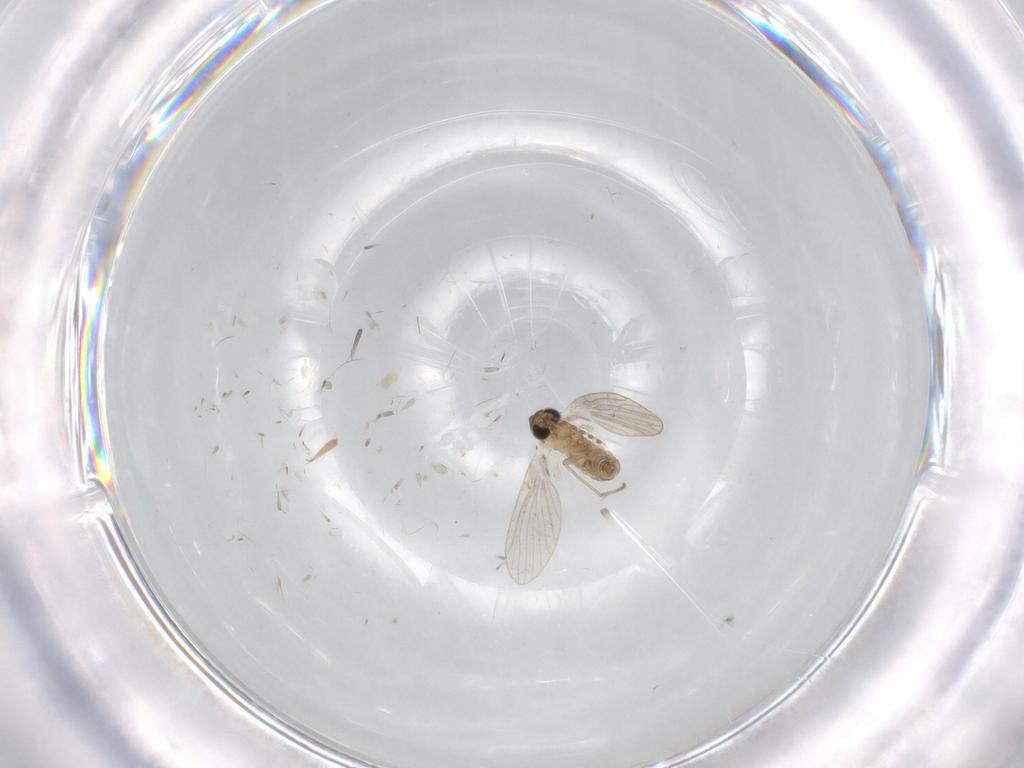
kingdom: Animalia
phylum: Arthropoda
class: Insecta
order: Diptera
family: Psychodidae
